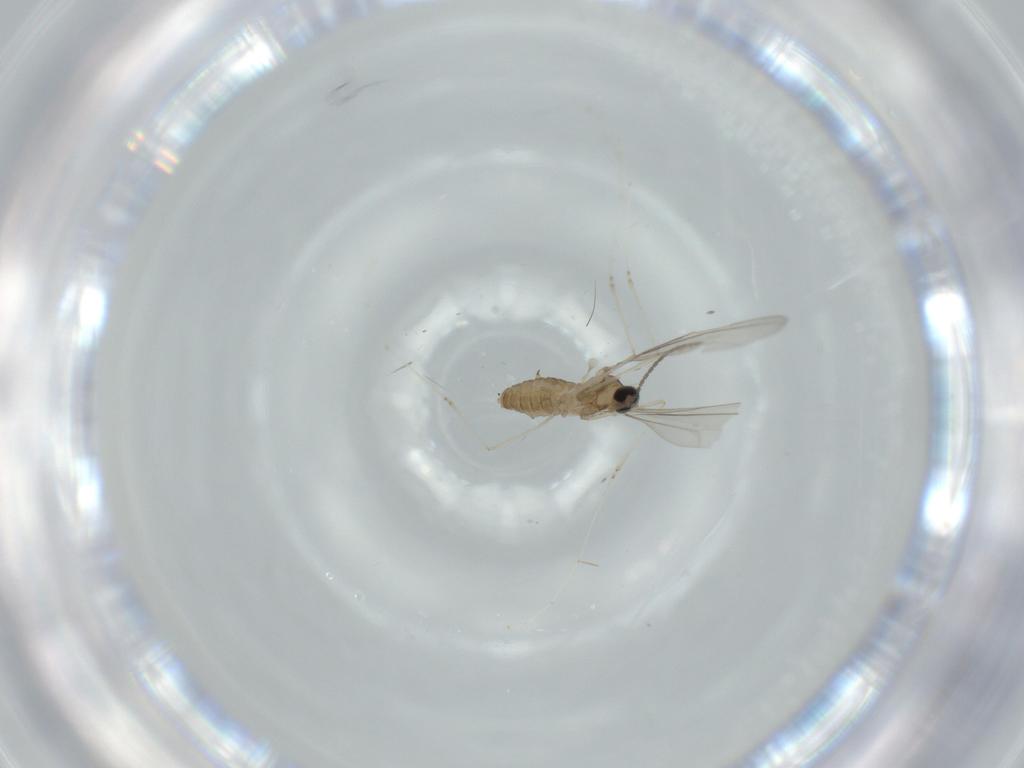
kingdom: Animalia
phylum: Arthropoda
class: Insecta
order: Diptera
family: Cecidomyiidae
